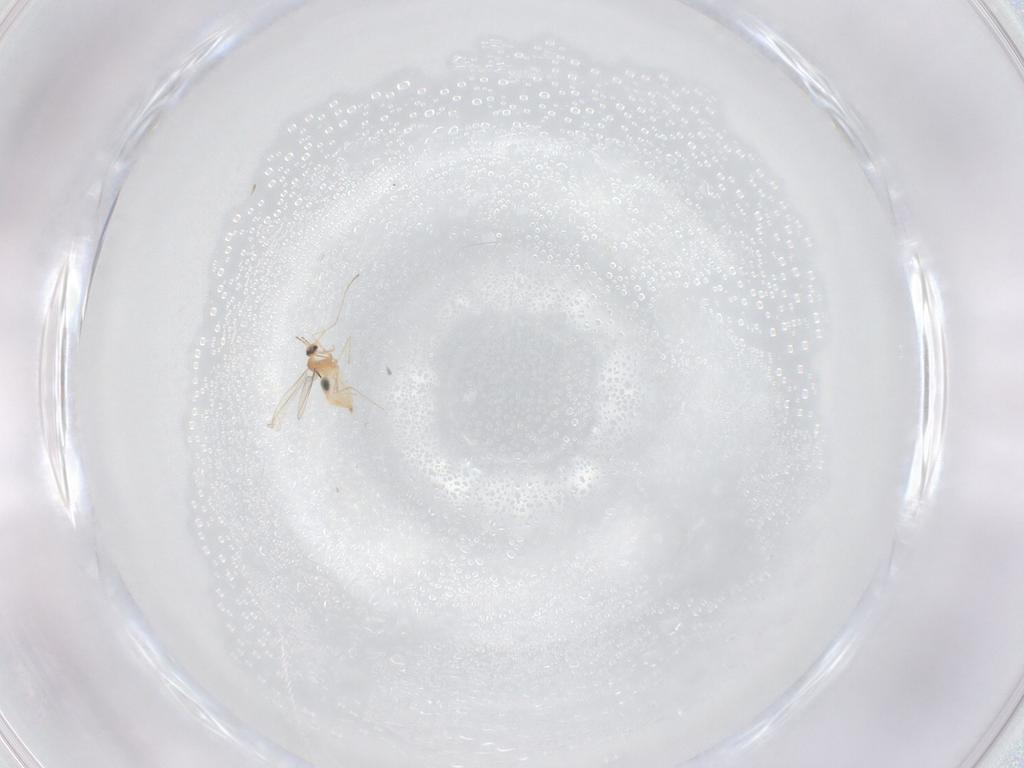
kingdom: Animalia
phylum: Arthropoda
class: Insecta
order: Diptera
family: Cecidomyiidae
